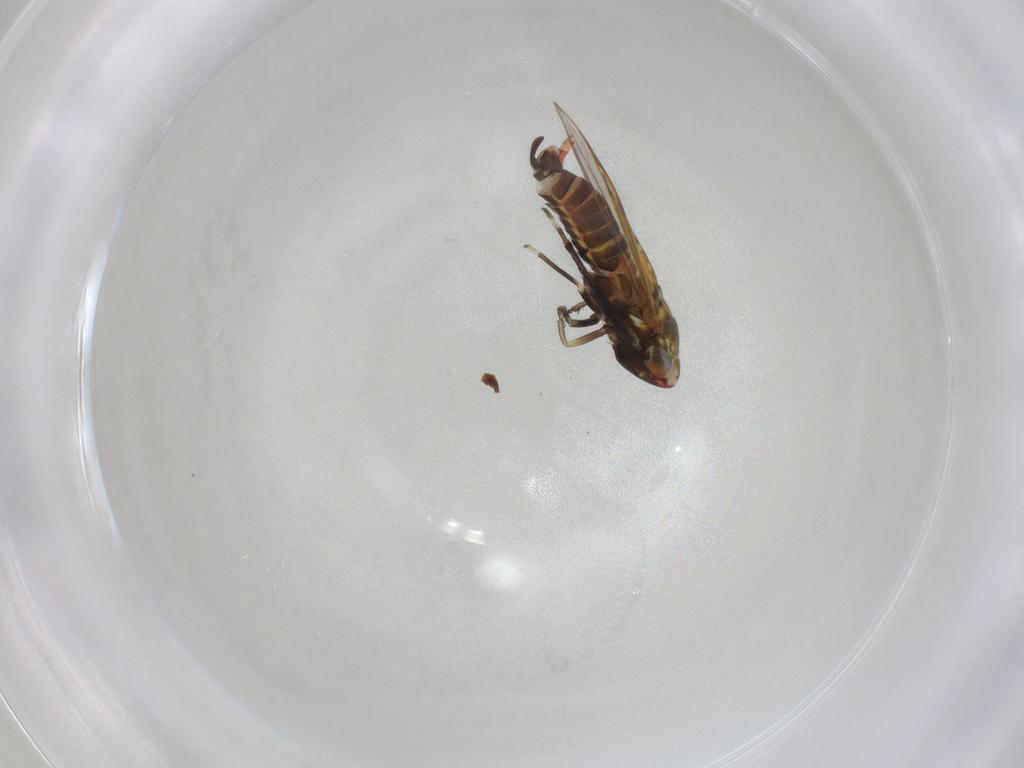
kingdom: Animalia
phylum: Arthropoda
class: Insecta
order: Hemiptera
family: Cicadellidae
